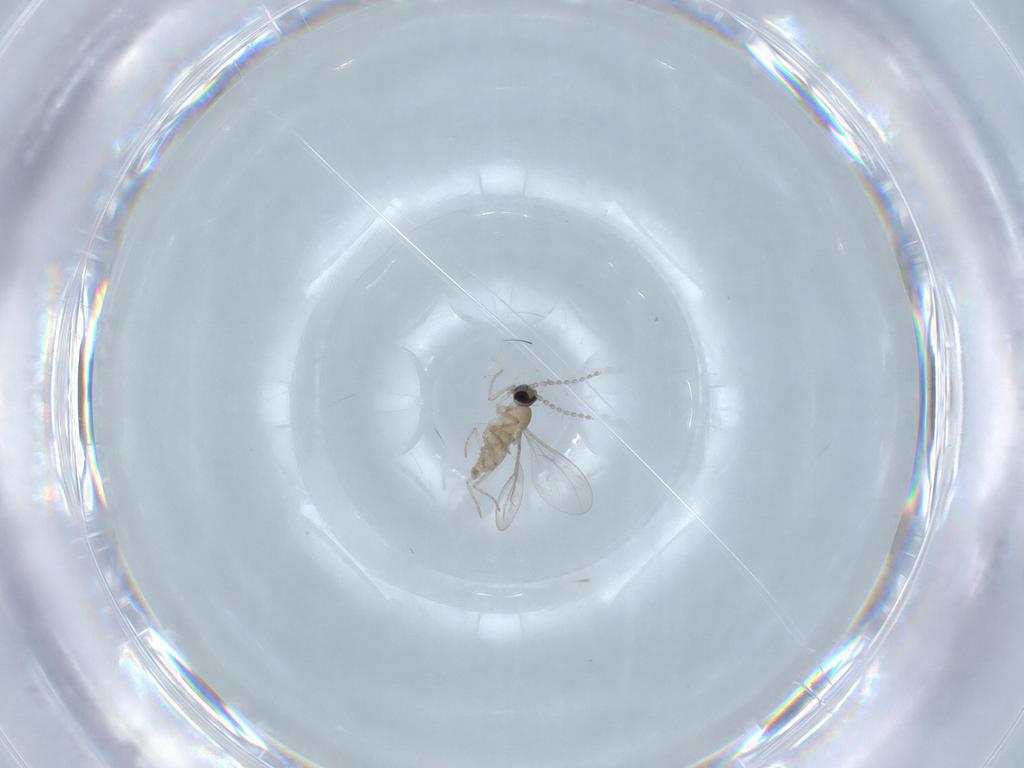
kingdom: Animalia
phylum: Arthropoda
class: Insecta
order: Diptera
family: Cecidomyiidae
